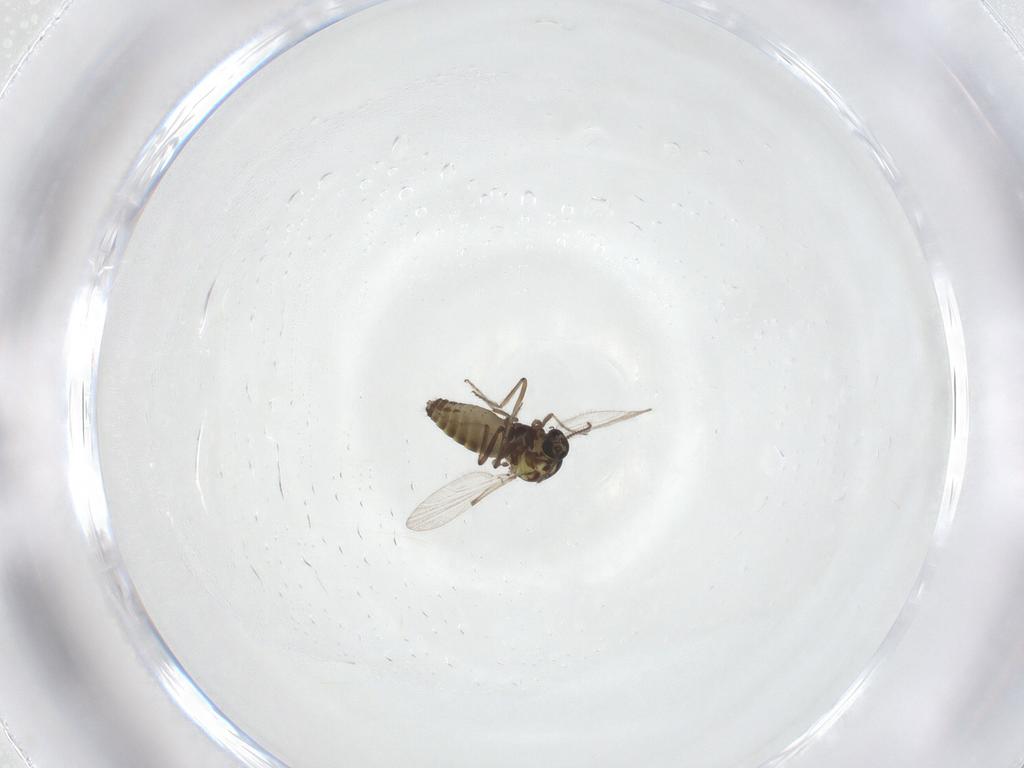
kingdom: Animalia
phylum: Arthropoda
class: Insecta
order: Diptera
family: Ceratopogonidae
